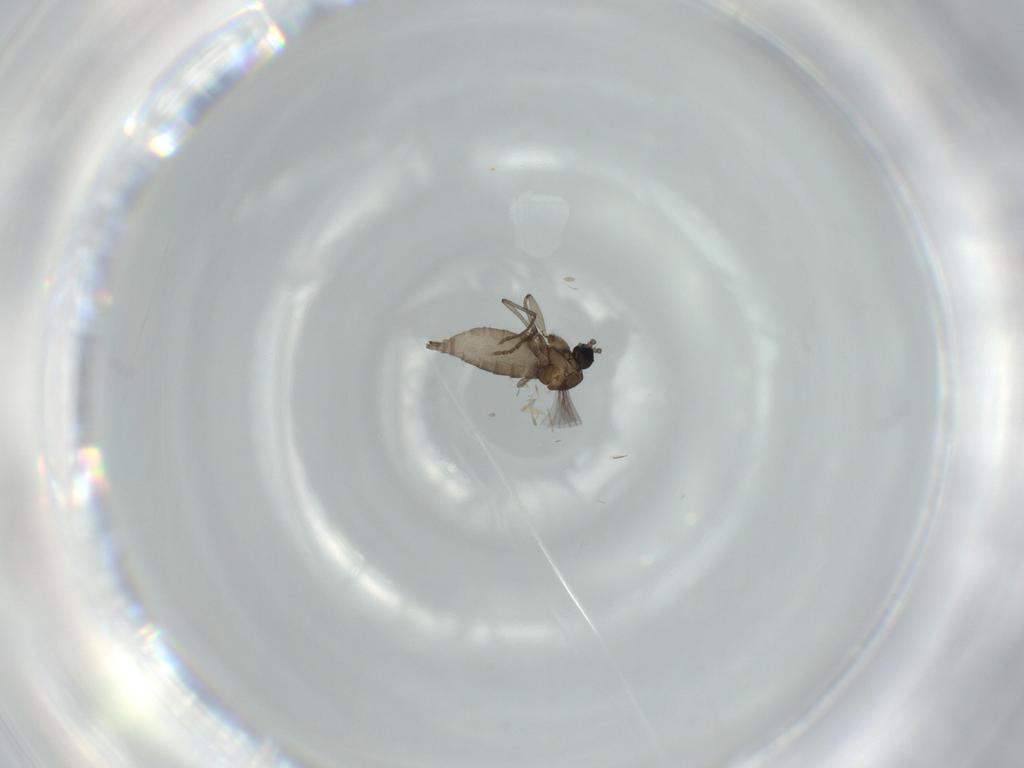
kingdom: Animalia
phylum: Arthropoda
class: Insecta
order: Diptera
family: Sciaridae
